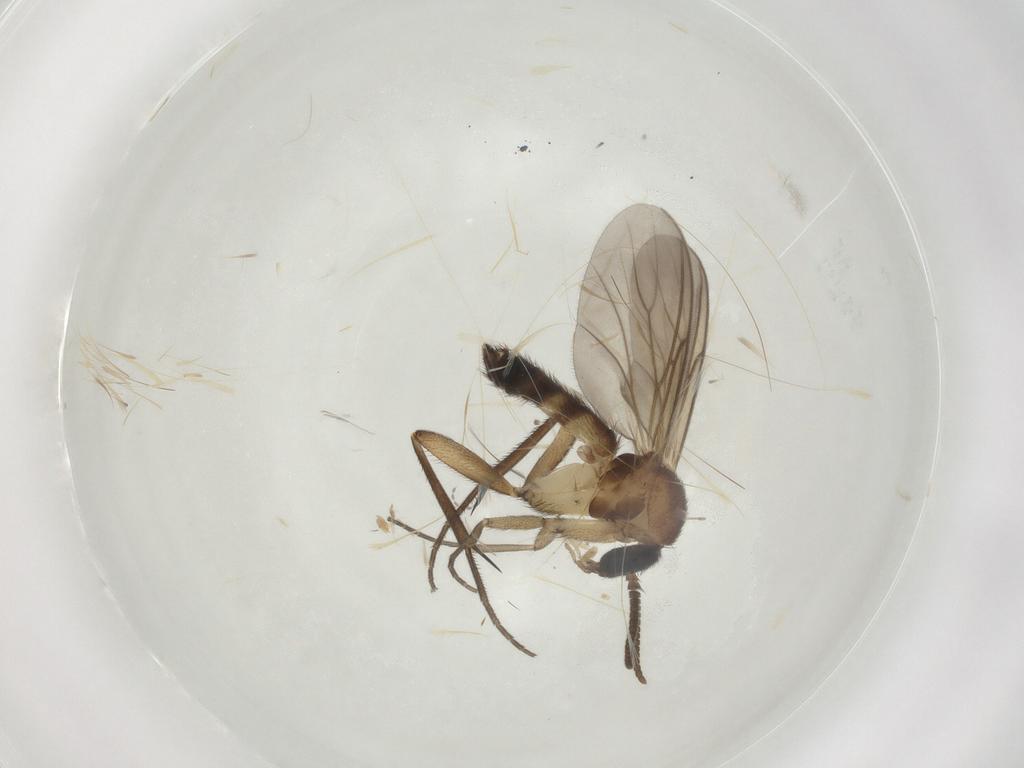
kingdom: Animalia
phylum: Arthropoda
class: Insecta
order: Diptera
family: Mycetophilidae
